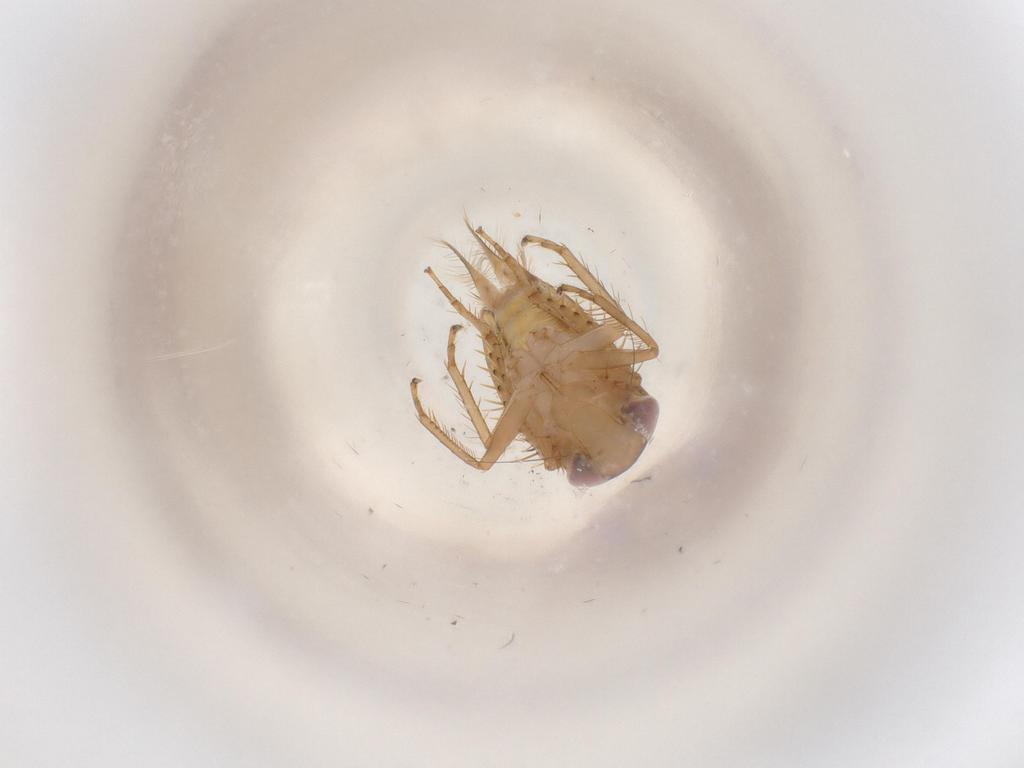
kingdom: Animalia
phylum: Arthropoda
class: Insecta
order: Hemiptera
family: Cicadellidae
